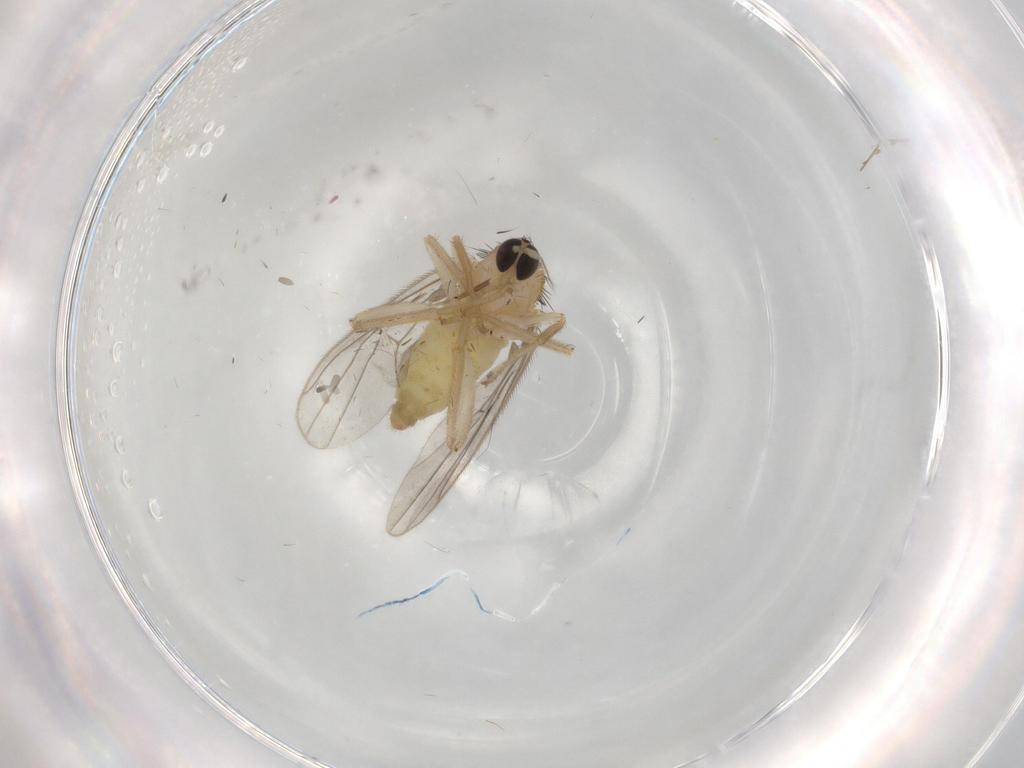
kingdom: Animalia
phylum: Arthropoda
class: Insecta
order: Diptera
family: Hybotidae
